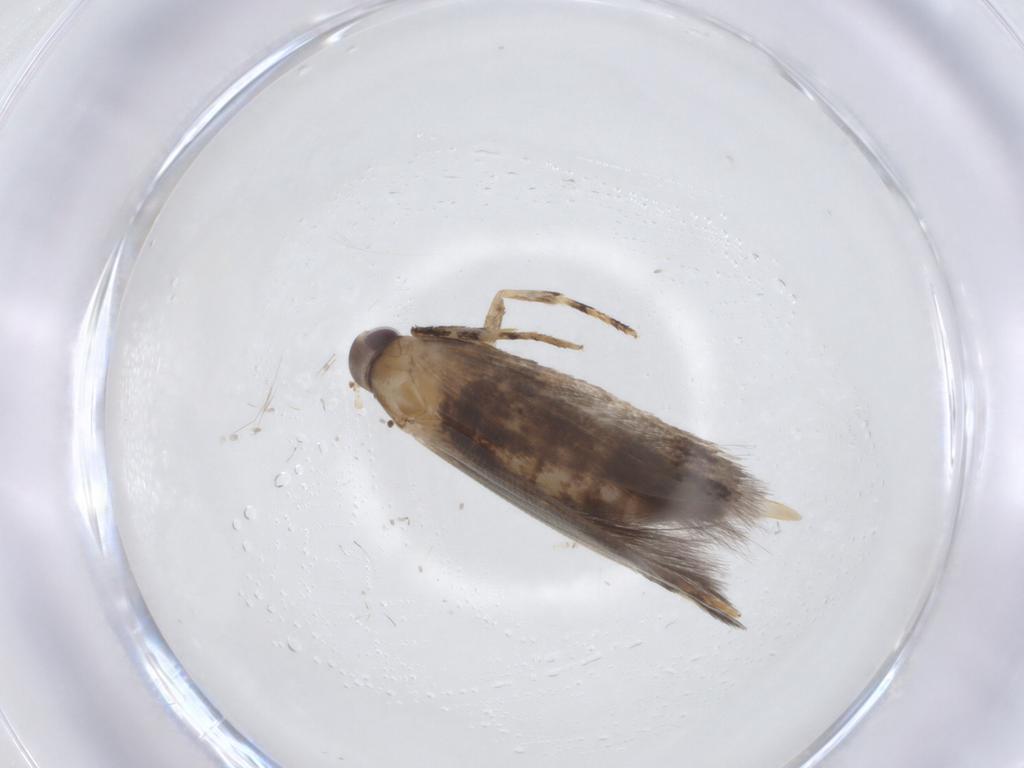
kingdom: Animalia
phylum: Arthropoda
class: Insecta
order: Lepidoptera
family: Cosmopterigidae
